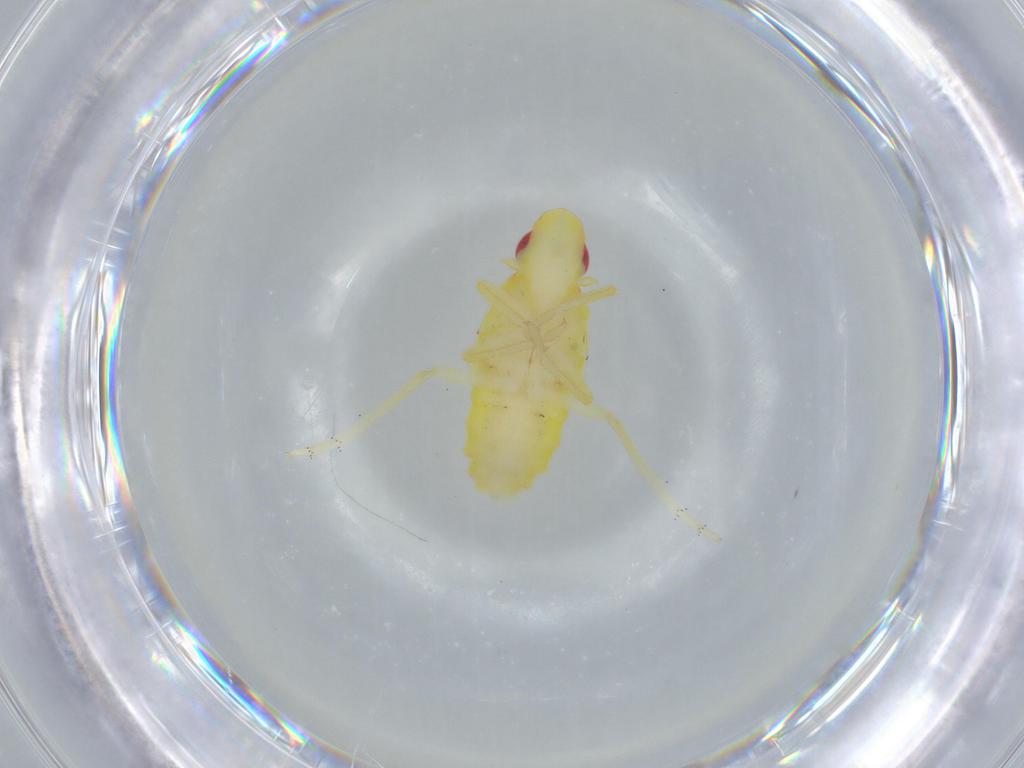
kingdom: Animalia
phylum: Arthropoda
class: Insecta
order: Hemiptera
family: Tropiduchidae
